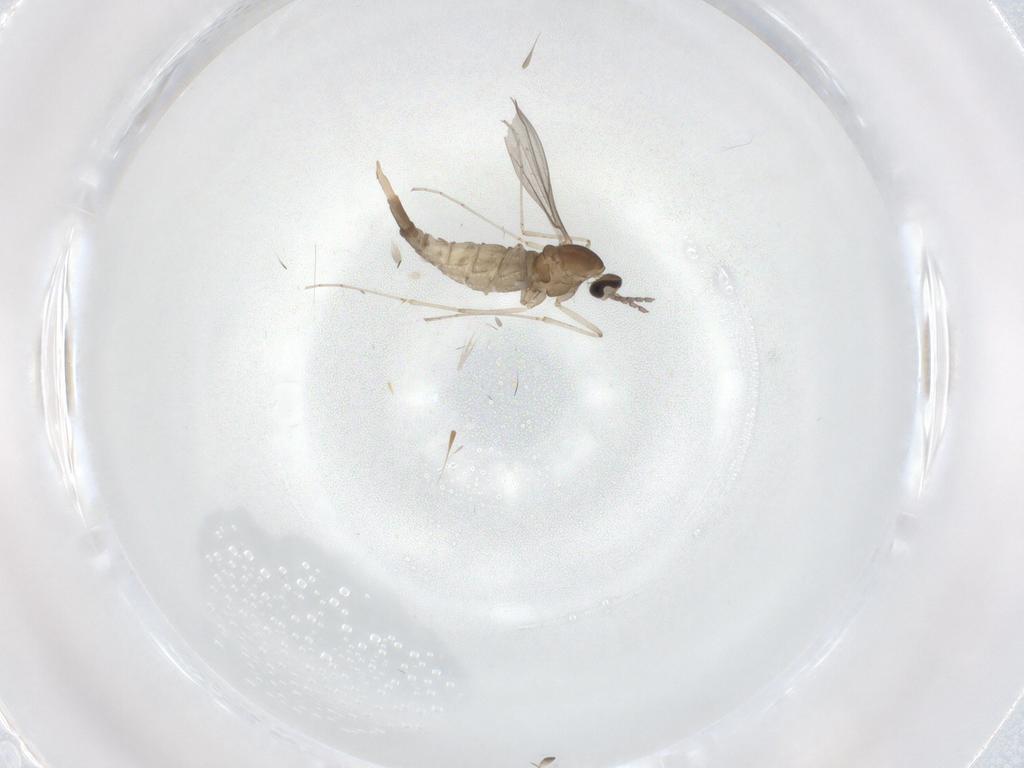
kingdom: Animalia
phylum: Arthropoda
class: Insecta
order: Diptera
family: Cecidomyiidae
